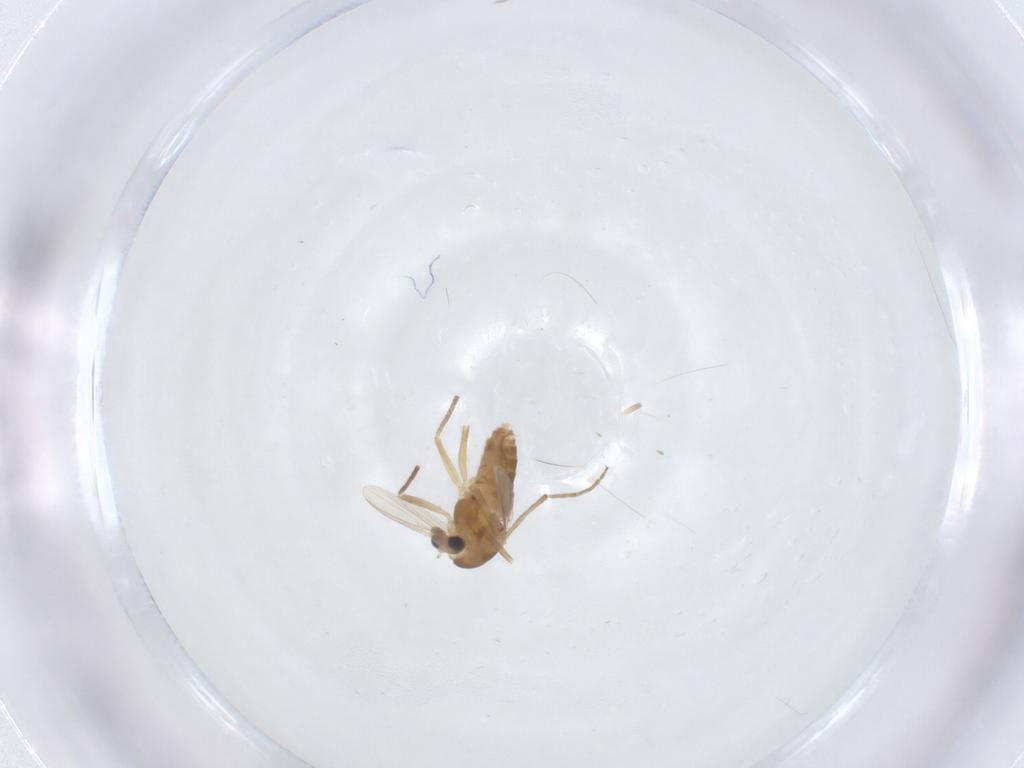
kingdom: Animalia
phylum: Arthropoda
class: Insecta
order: Diptera
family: Chironomidae
